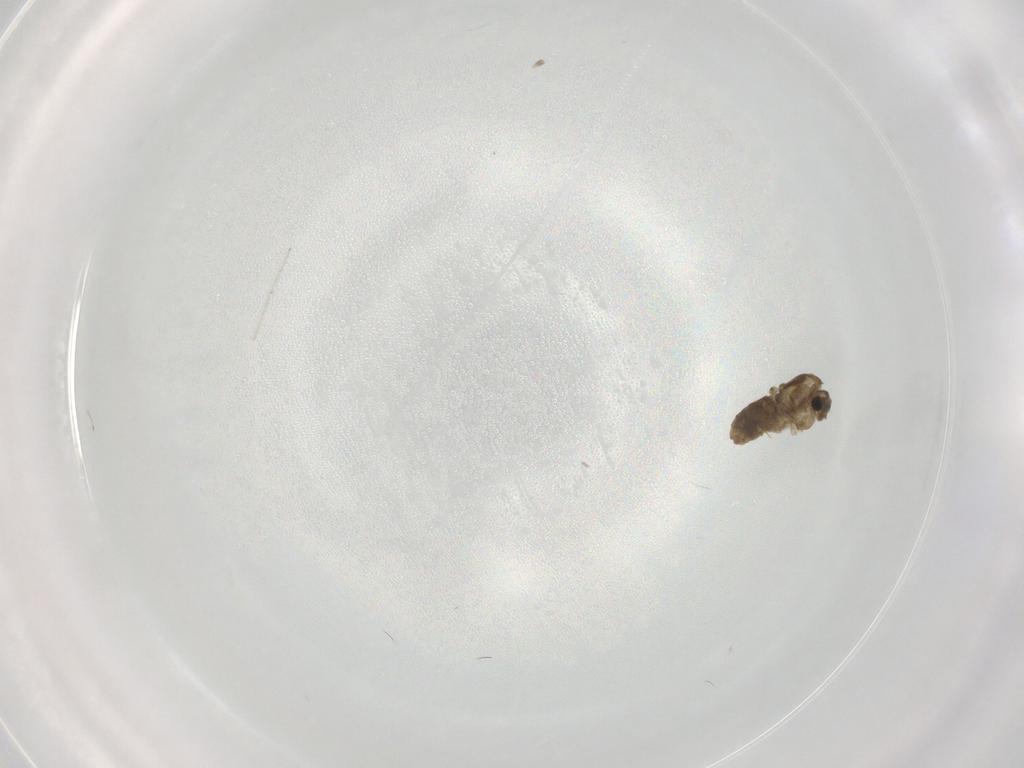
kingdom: Animalia
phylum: Arthropoda
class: Insecta
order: Diptera
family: Chironomidae
